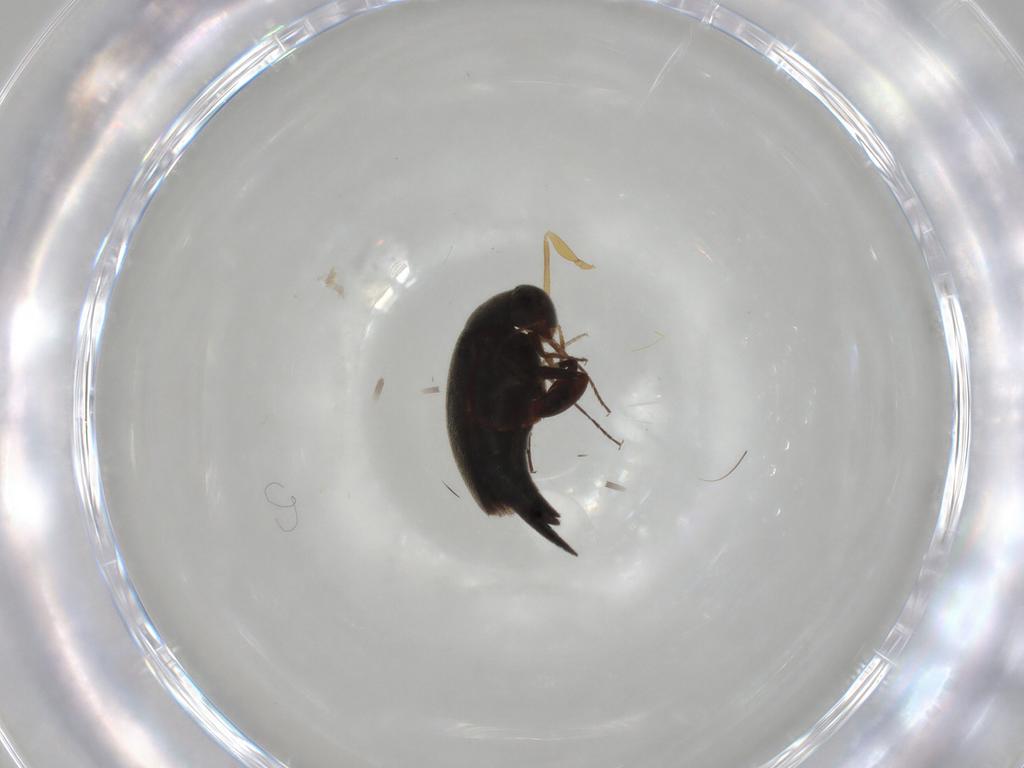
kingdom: Animalia
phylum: Arthropoda
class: Insecta
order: Coleoptera
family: Mordellidae
